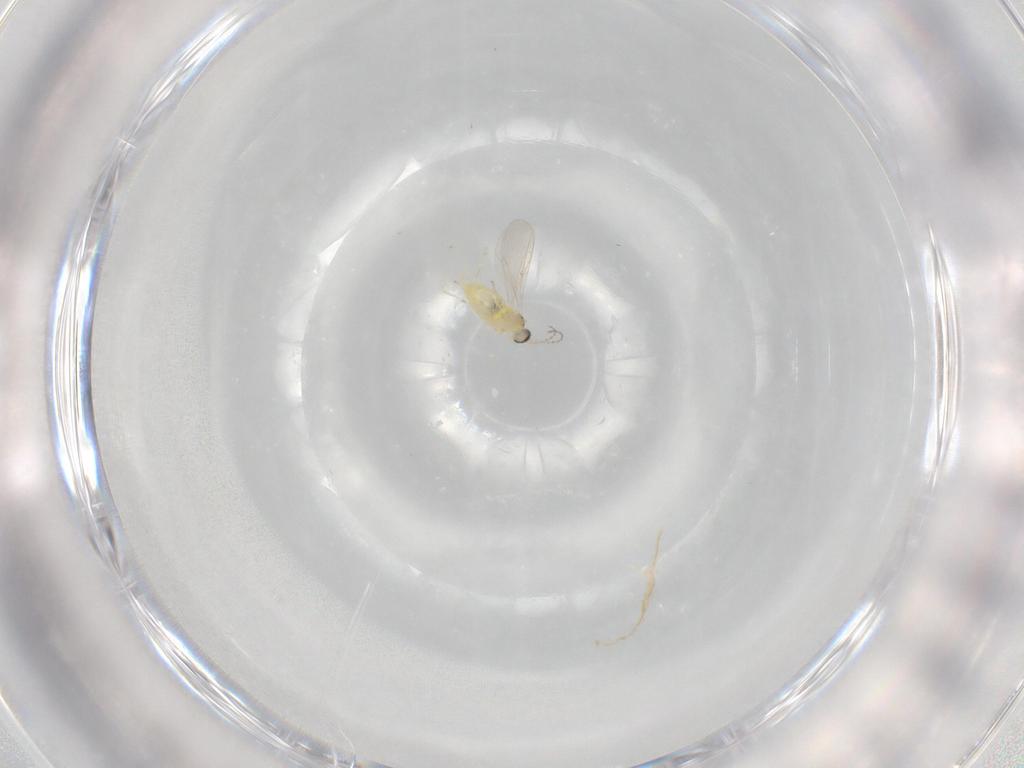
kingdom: Animalia
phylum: Arthropoda
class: Insecta
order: Diptera
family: Cecidomyiidae
